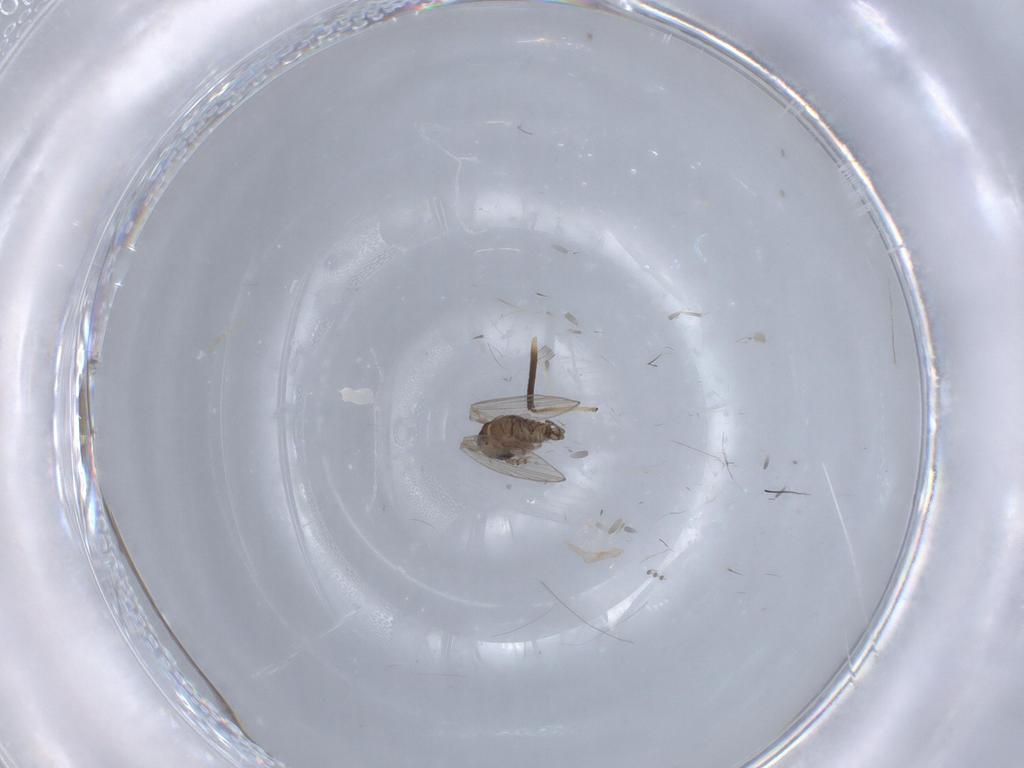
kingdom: Animalia
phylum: Arthropoda
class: Insecta
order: Diptera
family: Psychodidae
